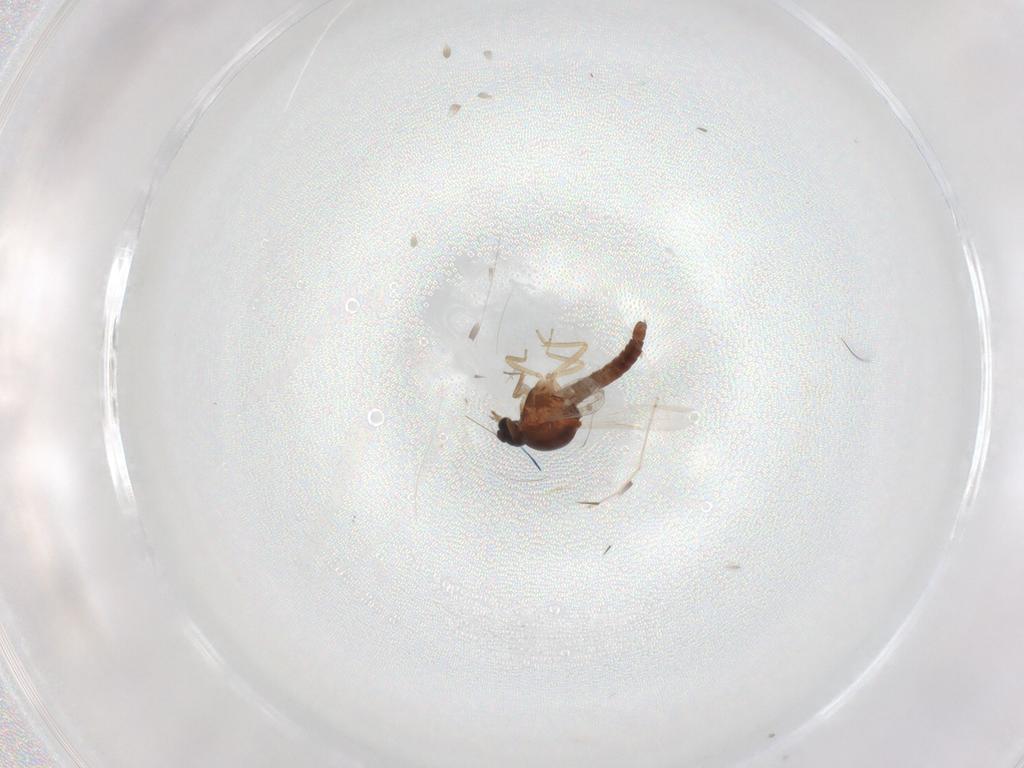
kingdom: Animalia
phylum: Arthropoda
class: Insecta
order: Diptera
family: Ceratopogonidae
